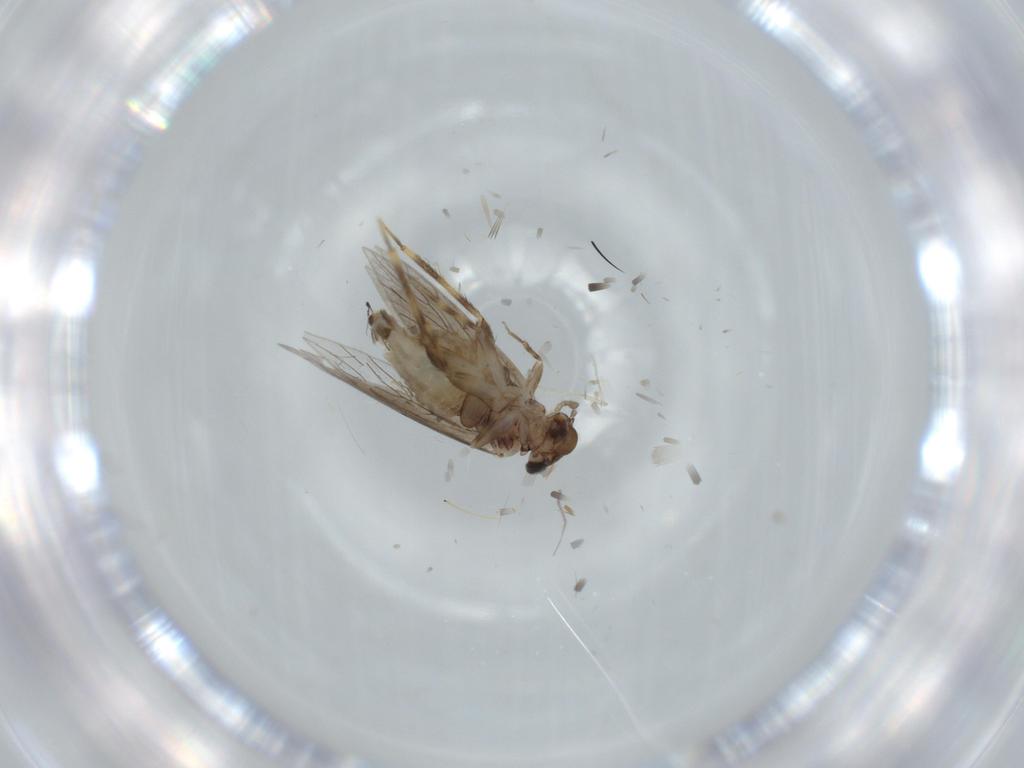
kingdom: Animalia
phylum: Arthropoda
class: Insecta
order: Psocodea
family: Lepidopsocidae
